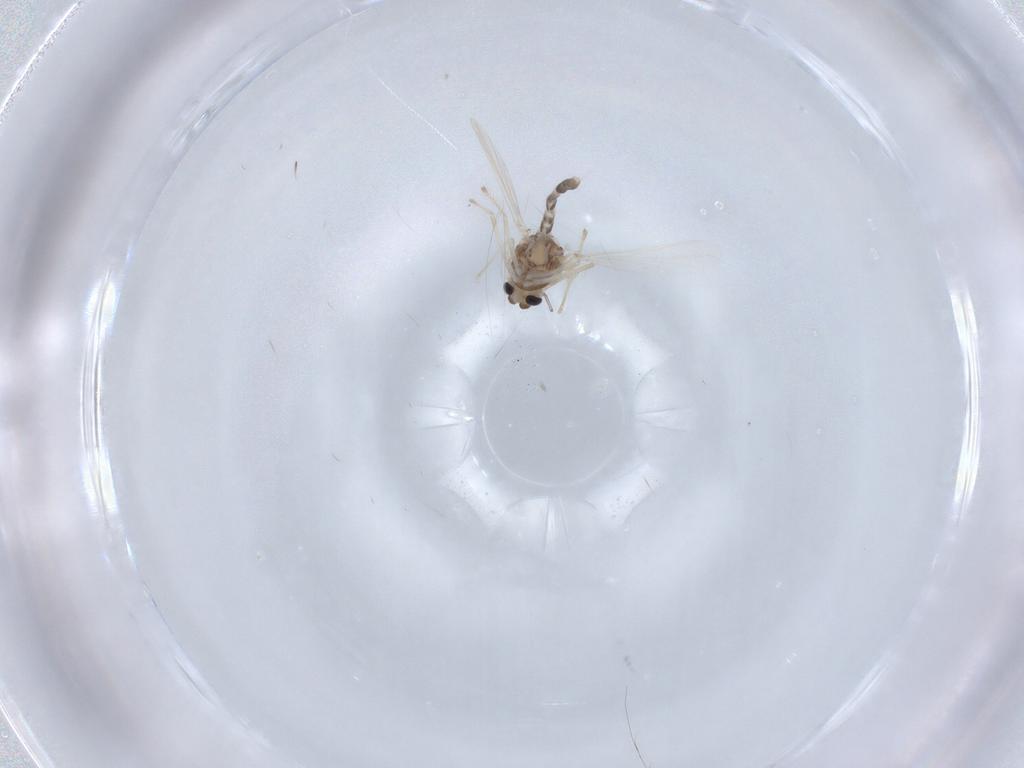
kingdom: Animalia
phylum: Arthropoda
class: Insecta
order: Diptera
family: Chironomidae
